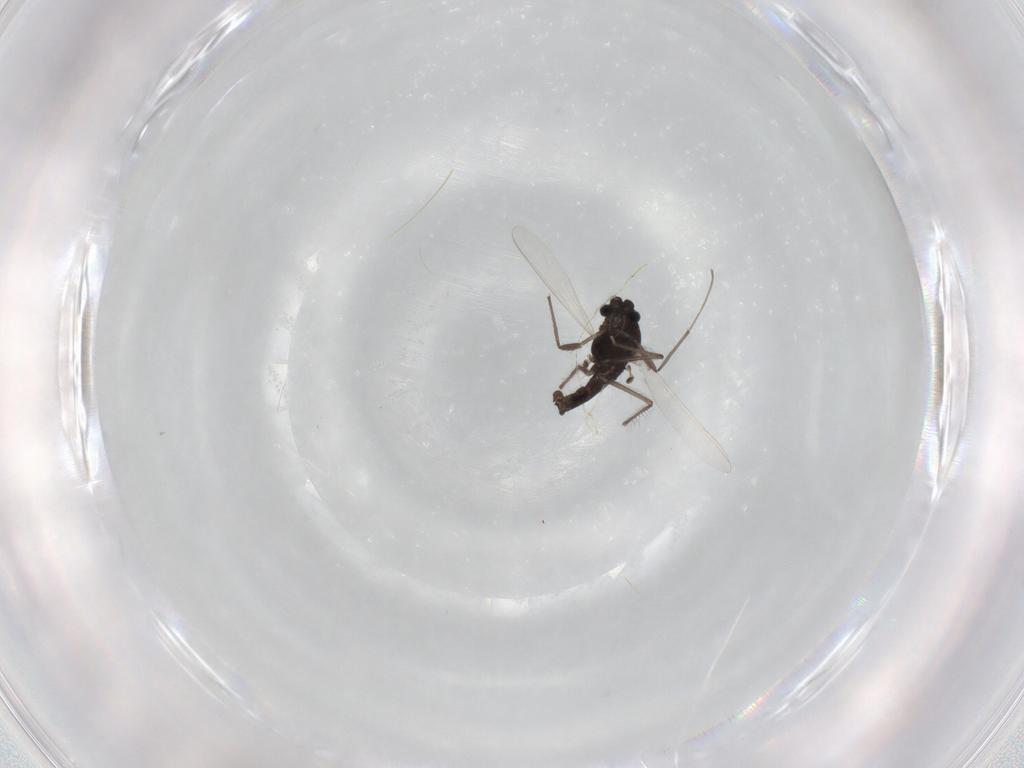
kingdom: Animalia
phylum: Arthropoda
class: Insecta
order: Diptera
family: Chironomidae
